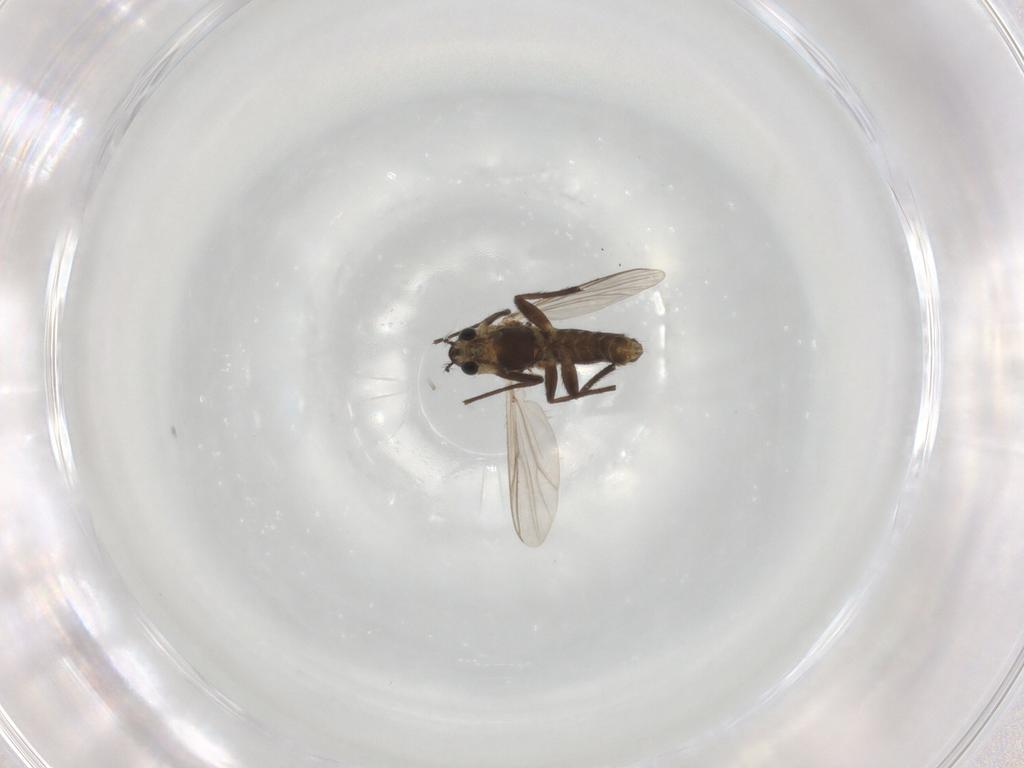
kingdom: Animalia
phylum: Arthropoda
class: Insecta
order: Diptera
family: Chironomidae
